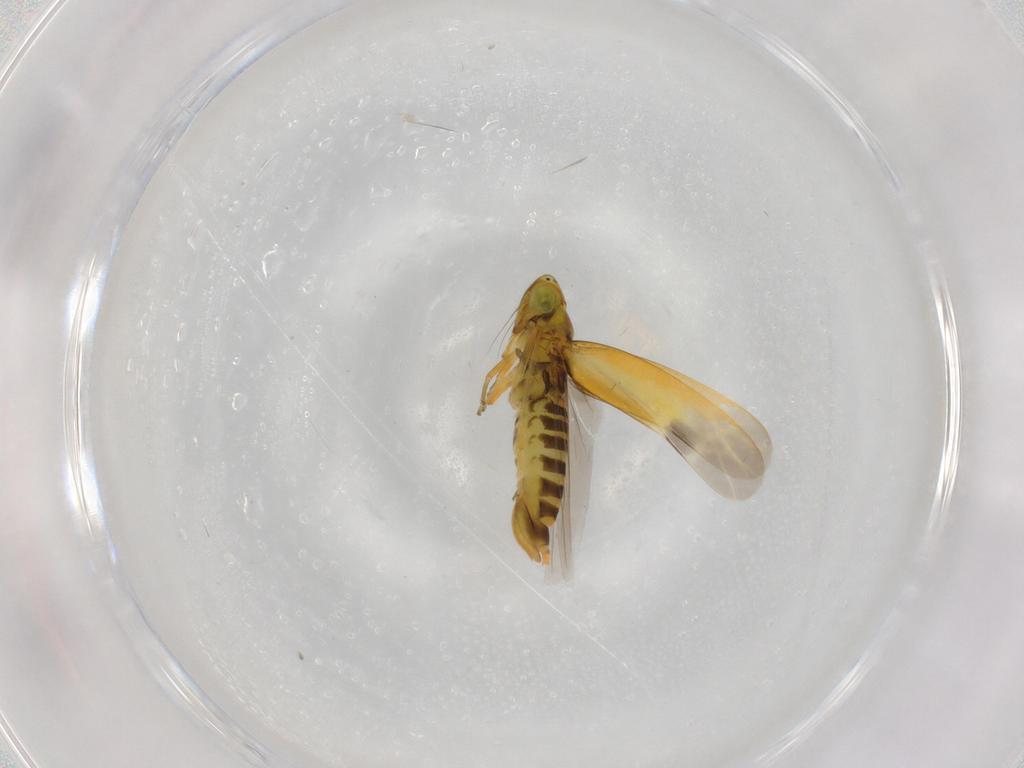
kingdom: Animalia
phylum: Arthropoda
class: Insecta
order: Hemiptera
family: Cicadellidae
